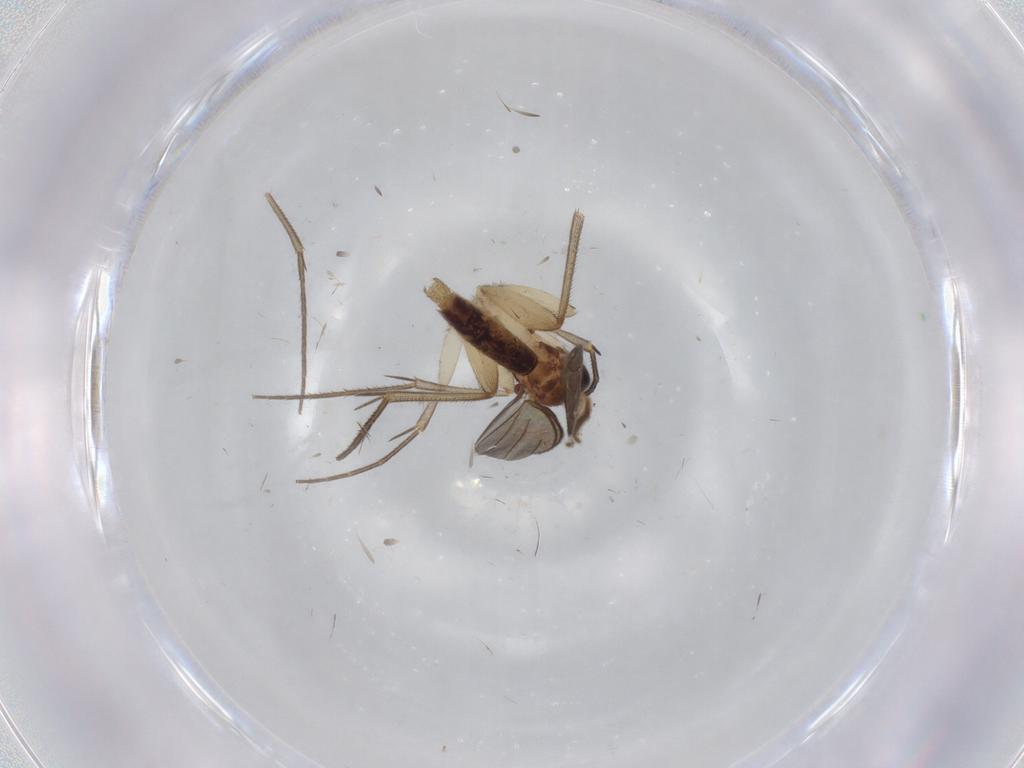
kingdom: Animalia
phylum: Arthropoda
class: Insecta
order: Diptera
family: Mycetophilidae
